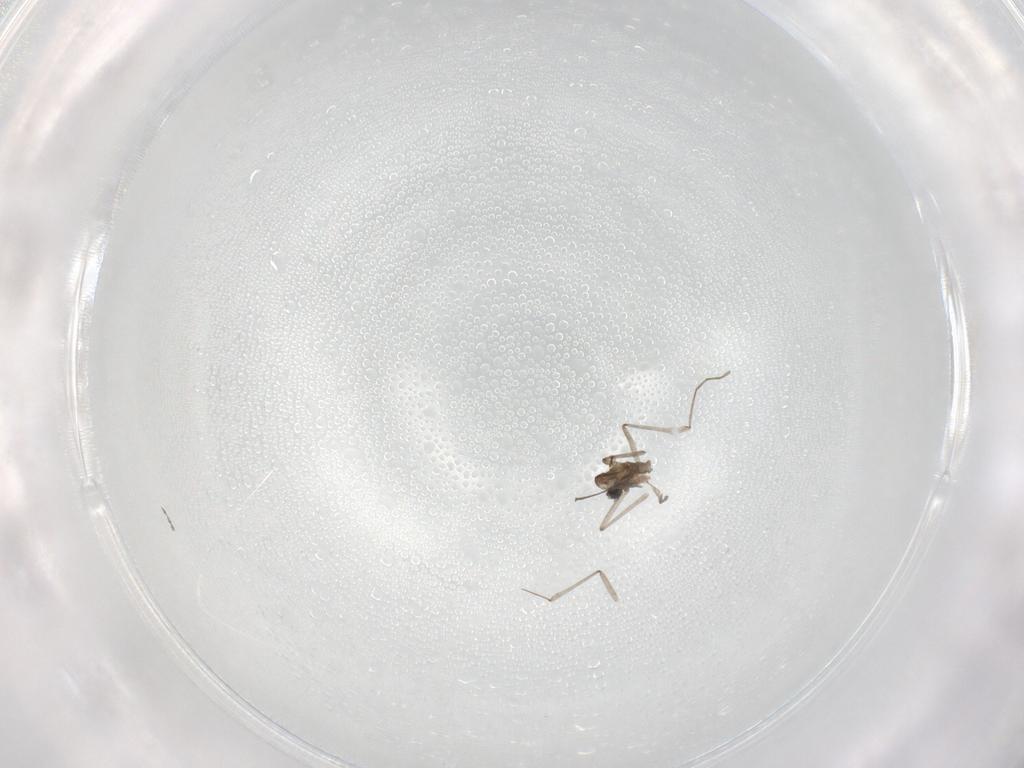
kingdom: Animalia
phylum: Arthropoda
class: Insecta
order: Diptera
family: Cecidomyiidae
